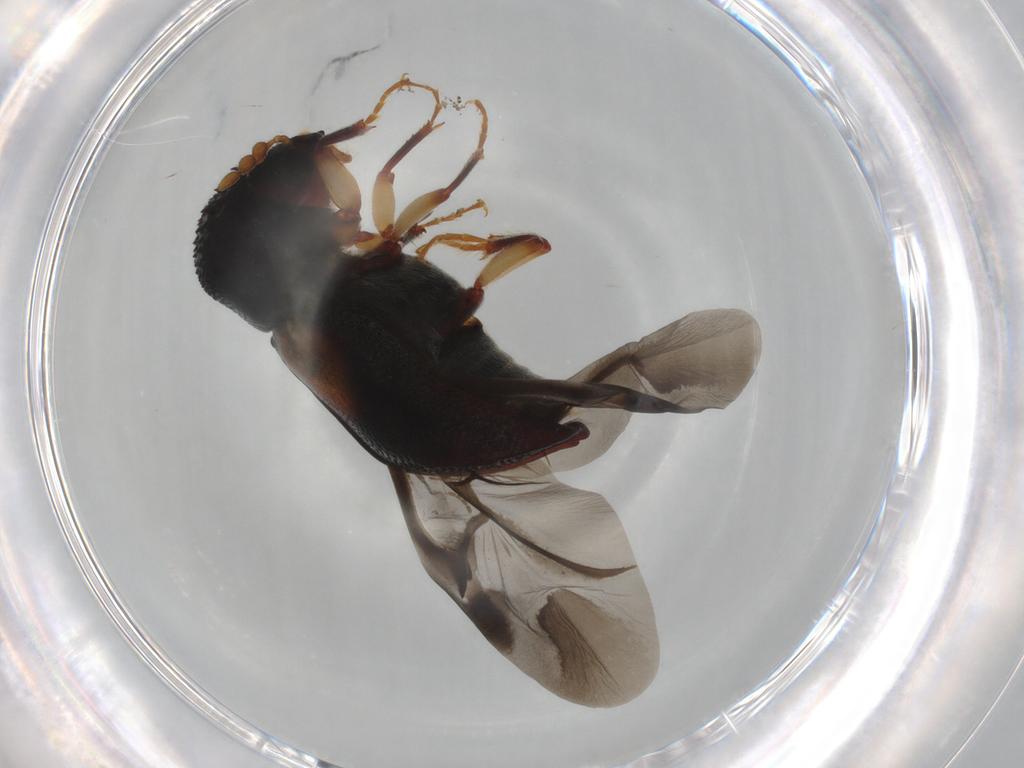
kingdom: Animalia
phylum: Arthropoda
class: Insecta
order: Coleoptera
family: Bostrichidae
